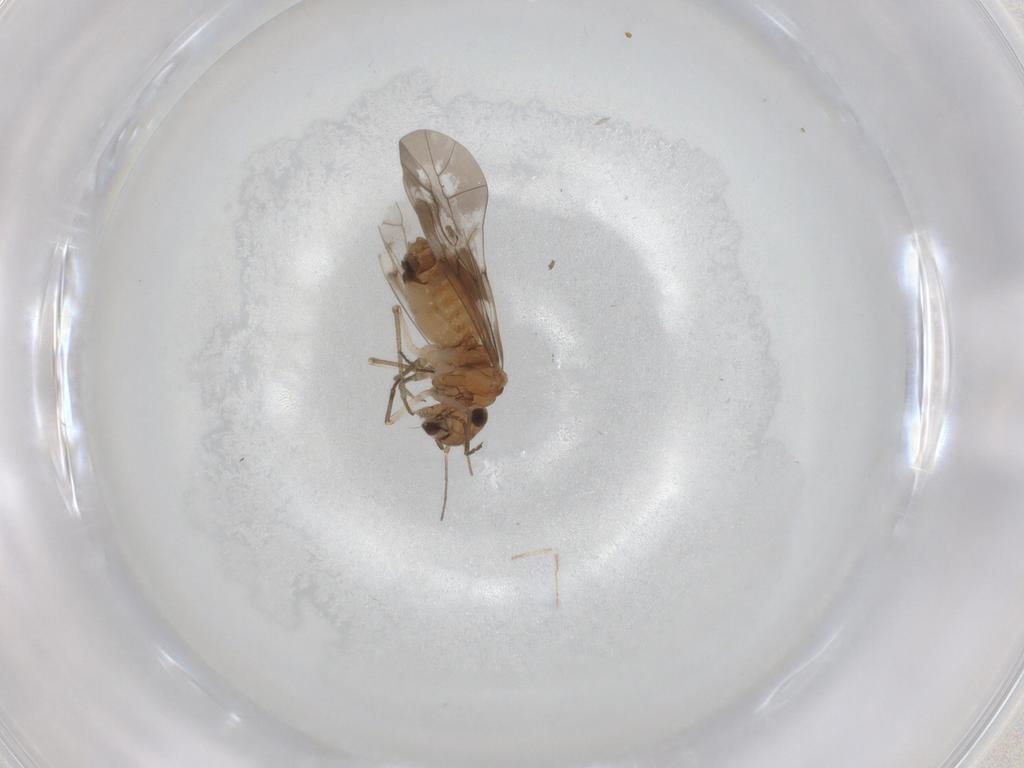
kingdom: Animalia
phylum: Arthropoda
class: Insecta
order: Psocodea
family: Peripsocidae
